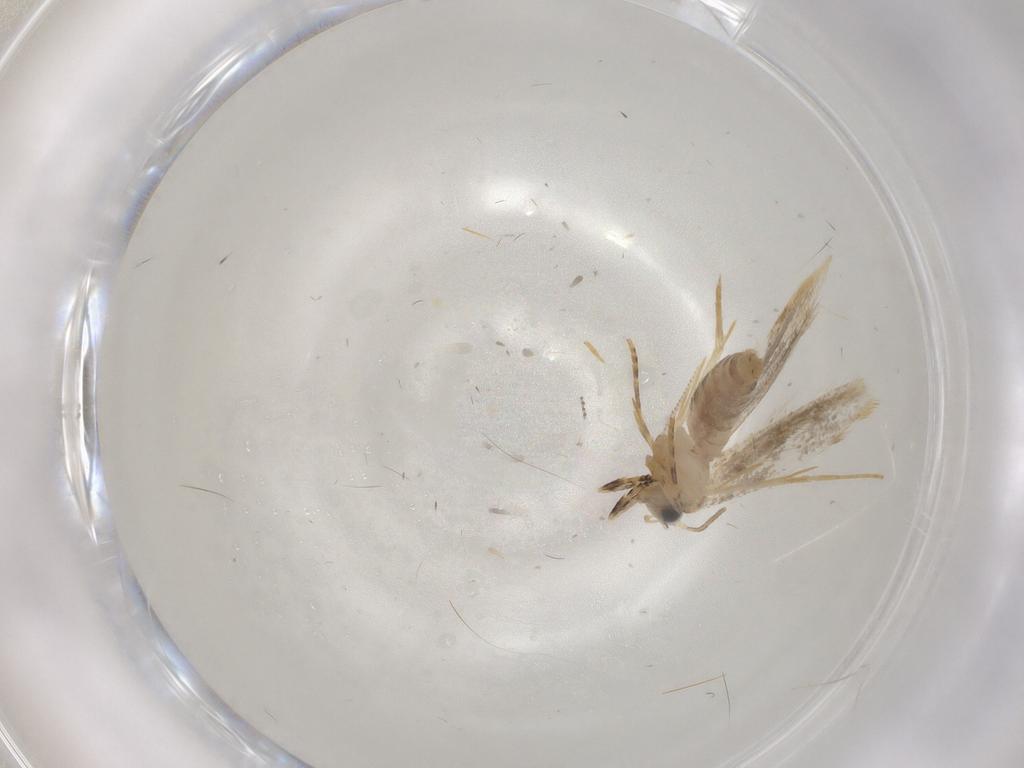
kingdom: Animalia
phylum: Arthropoda
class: Insecta
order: Lepidoptera
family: Tineidae
